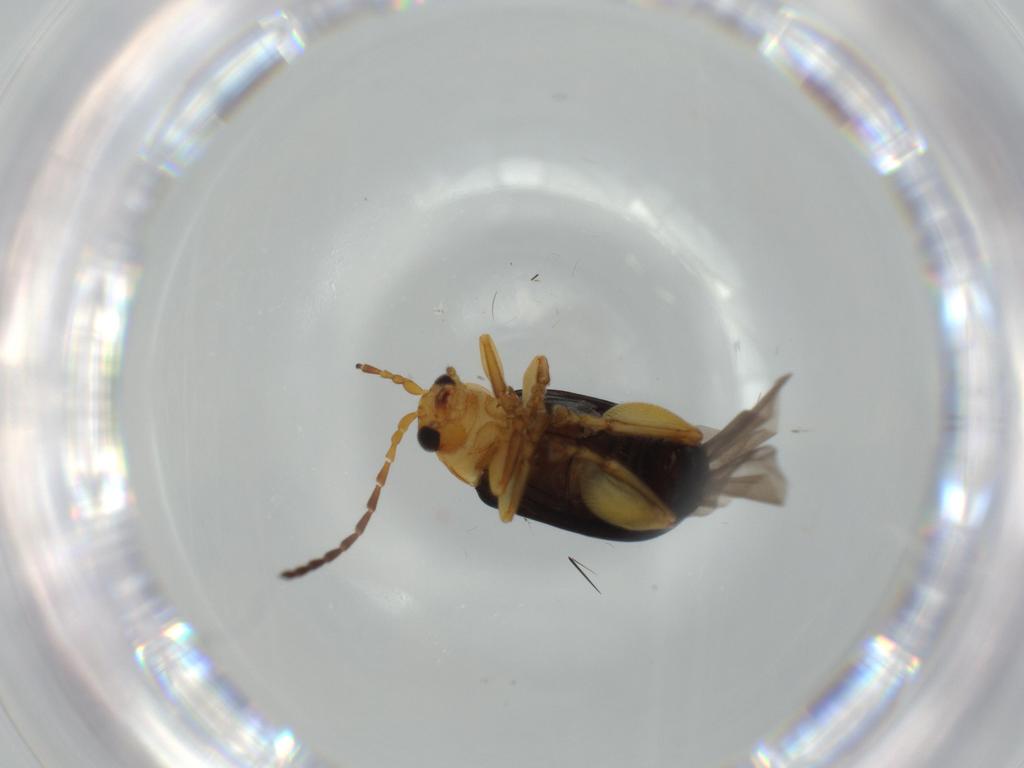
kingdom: Animalia
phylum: Arthropoda
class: Insecta
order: Coleoptera
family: Chrysomelidae
